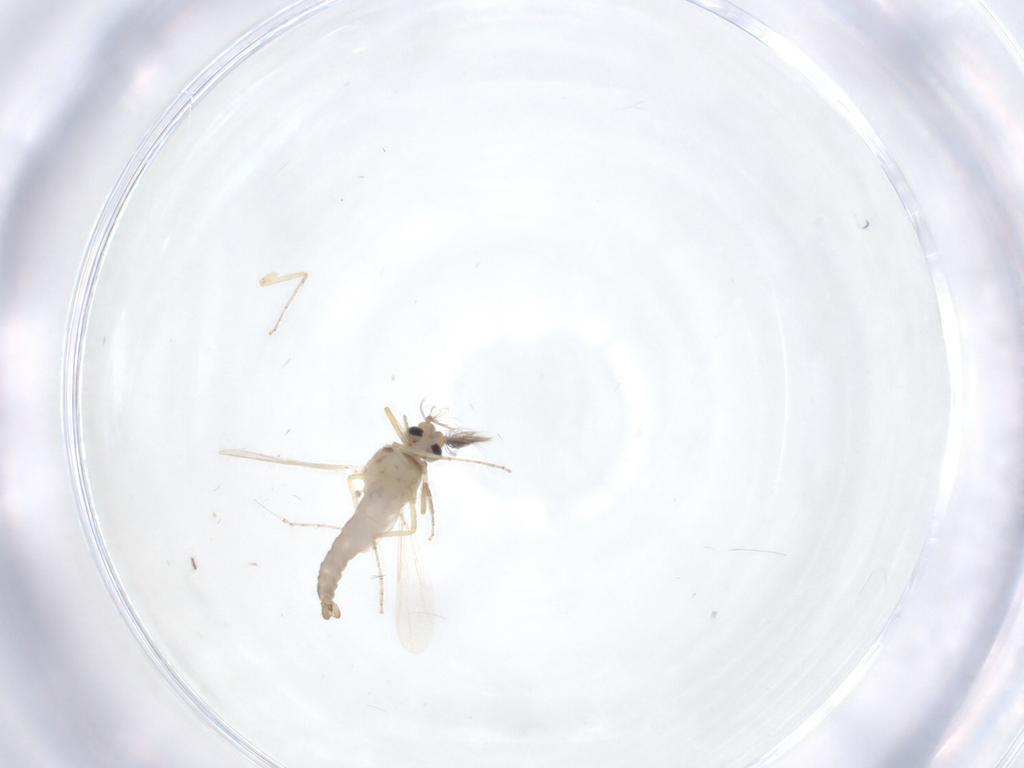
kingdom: Animalia
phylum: Arthropoda
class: Insecta
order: Diptera
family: Ceratopogonidae
